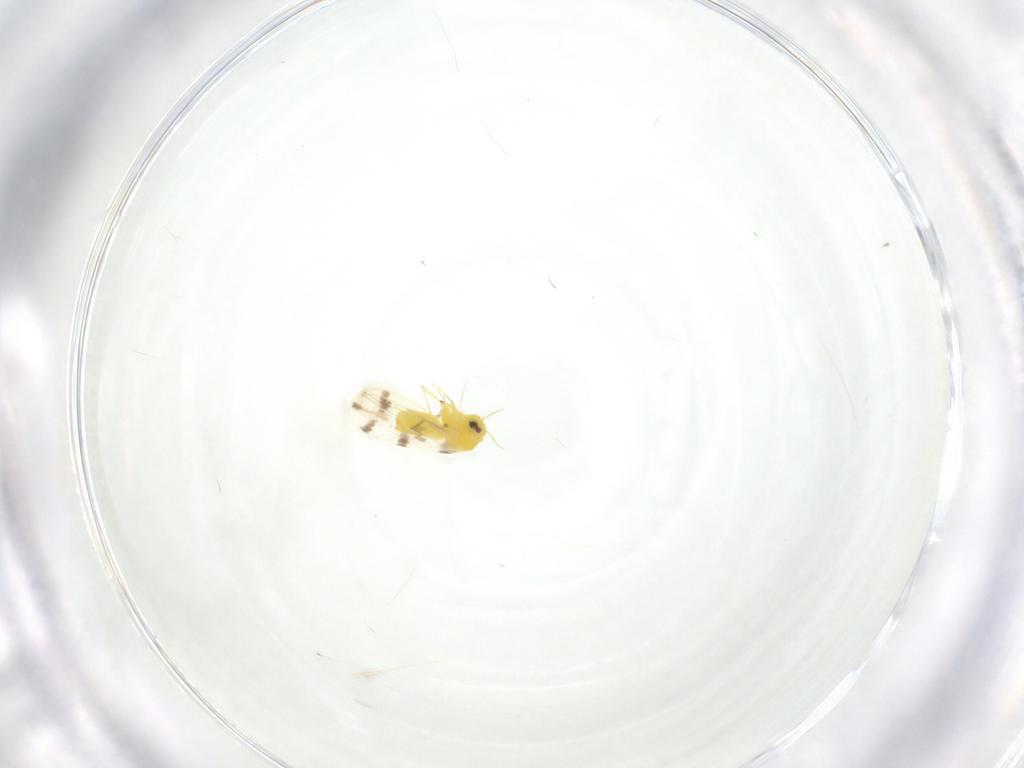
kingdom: Animalia
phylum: Arthropoda
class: Insecta
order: Hemiptera
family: Aleyrodidae
